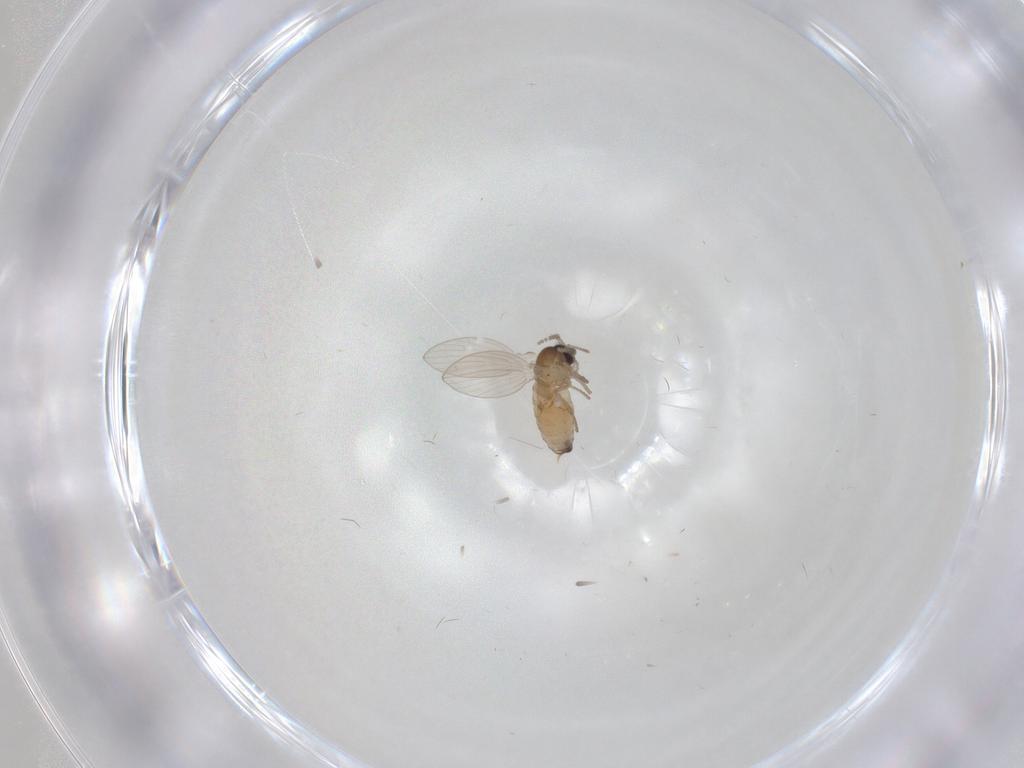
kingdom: Animalia
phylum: Arthropoda
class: Insecta
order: Diptera
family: Psychodidae
